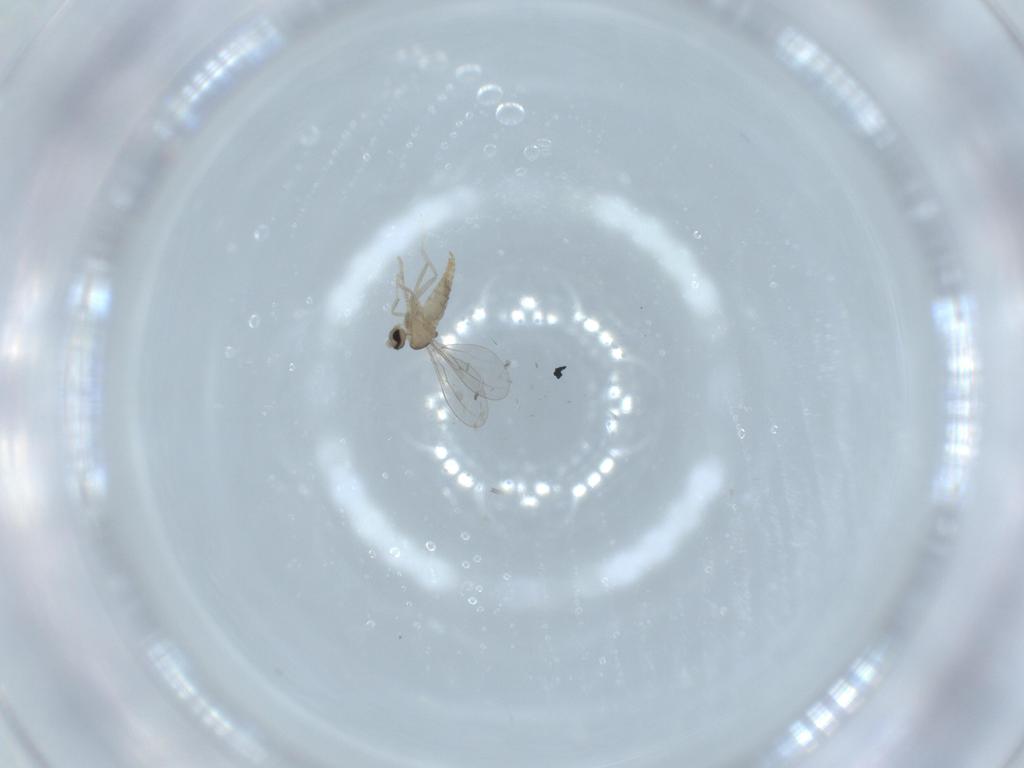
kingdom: Animalia
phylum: Arthropoda
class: Insecta
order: Diptera
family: Cecidomyiidae
